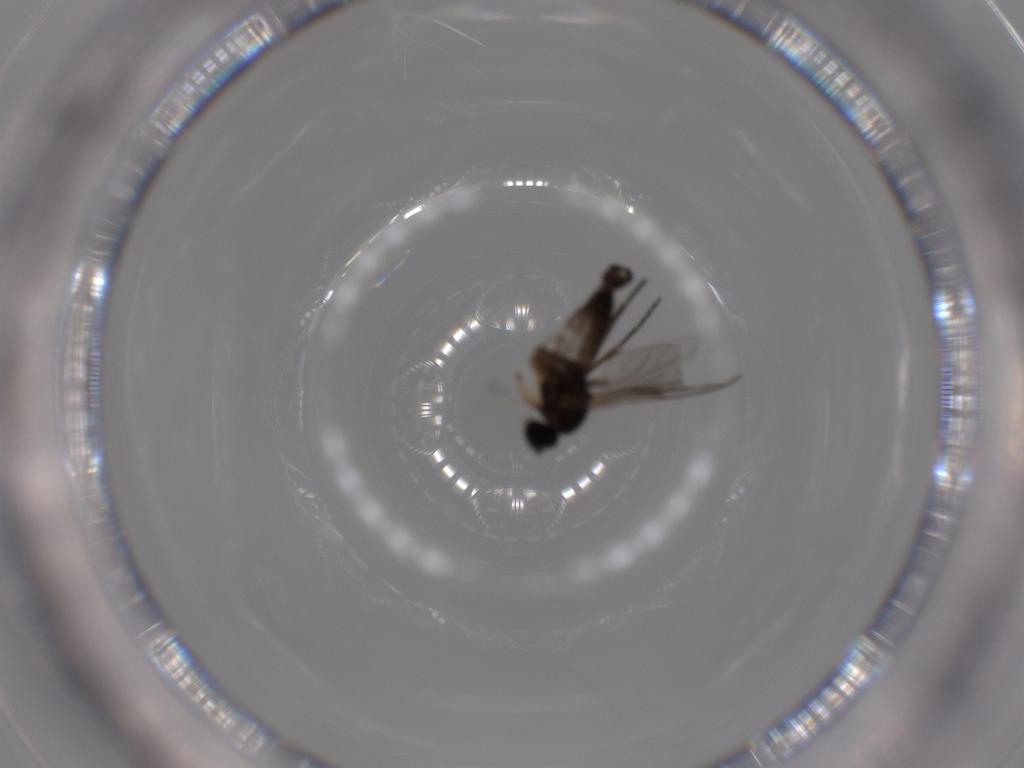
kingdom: Animalia
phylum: Arthropoda
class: Insecta
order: Diptera
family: Sciaridae
